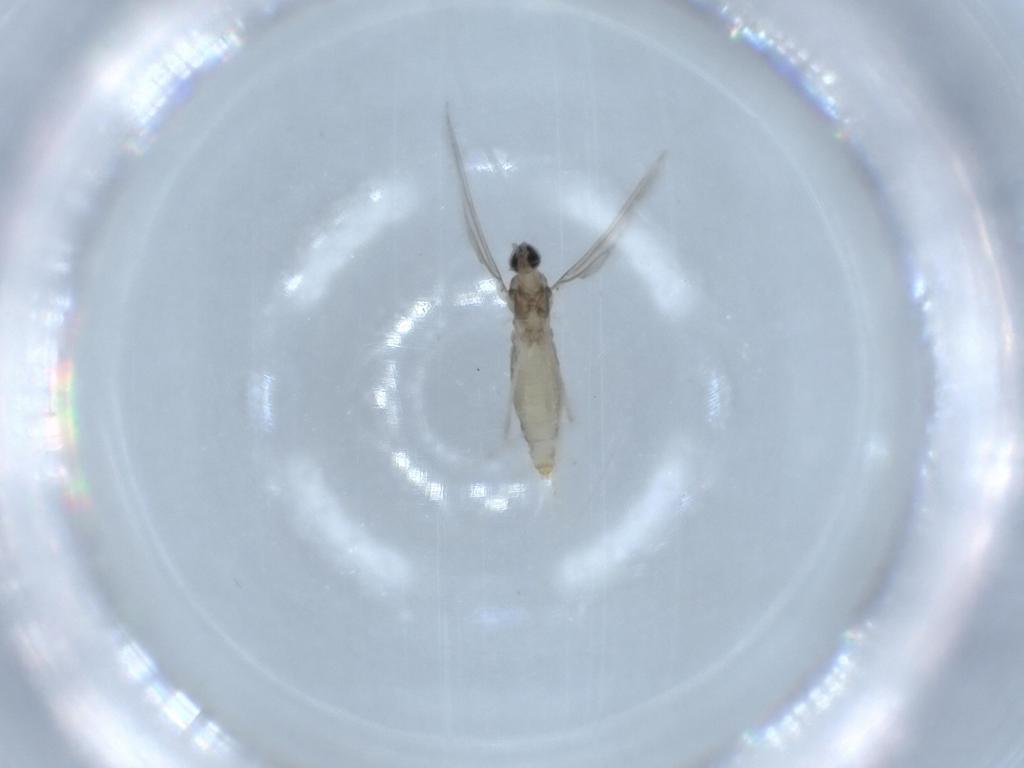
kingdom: Animalia
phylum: Arthropoda
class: Insecta
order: Diptera
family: Cecidomyiidae
